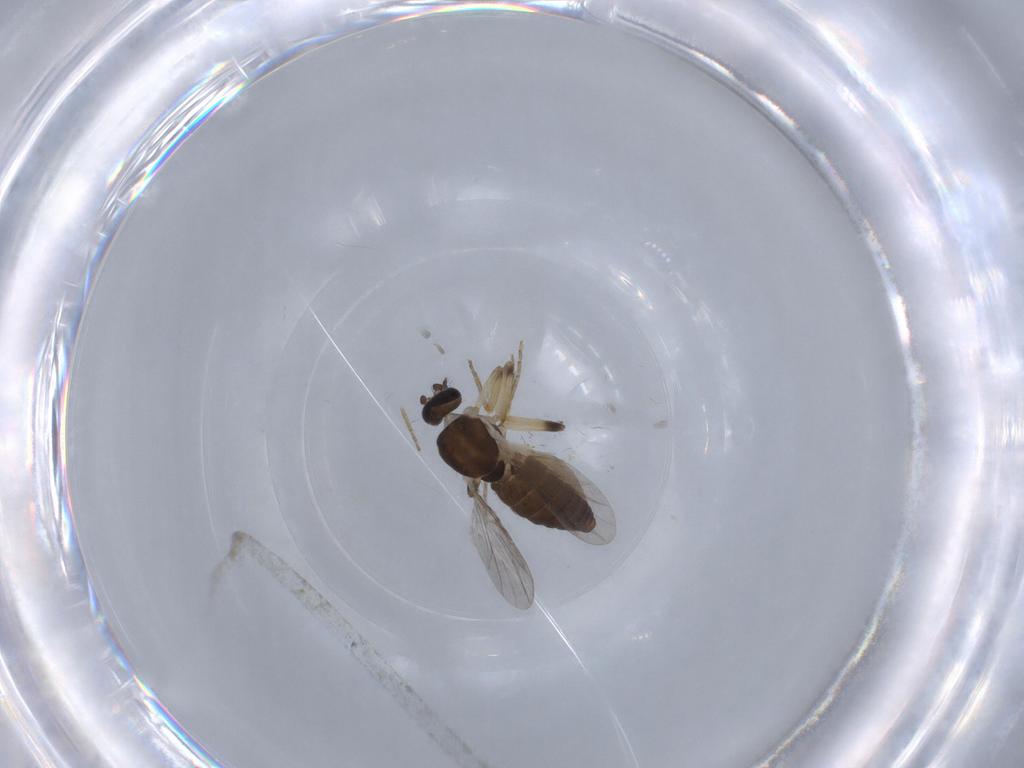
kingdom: Animalia
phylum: Arthropoda
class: Insecta
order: Diptera
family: Ceratopogonidae
